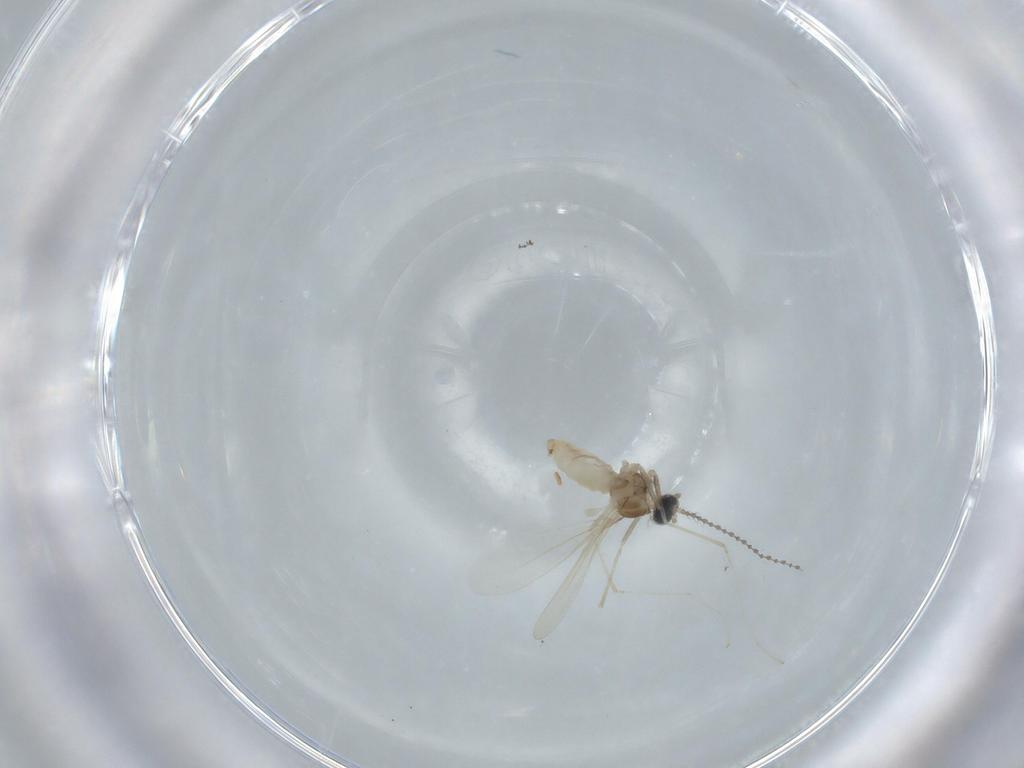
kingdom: Animalia
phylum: Arthropoda
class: Insecta
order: Diptera
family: Cecidomyiidae
